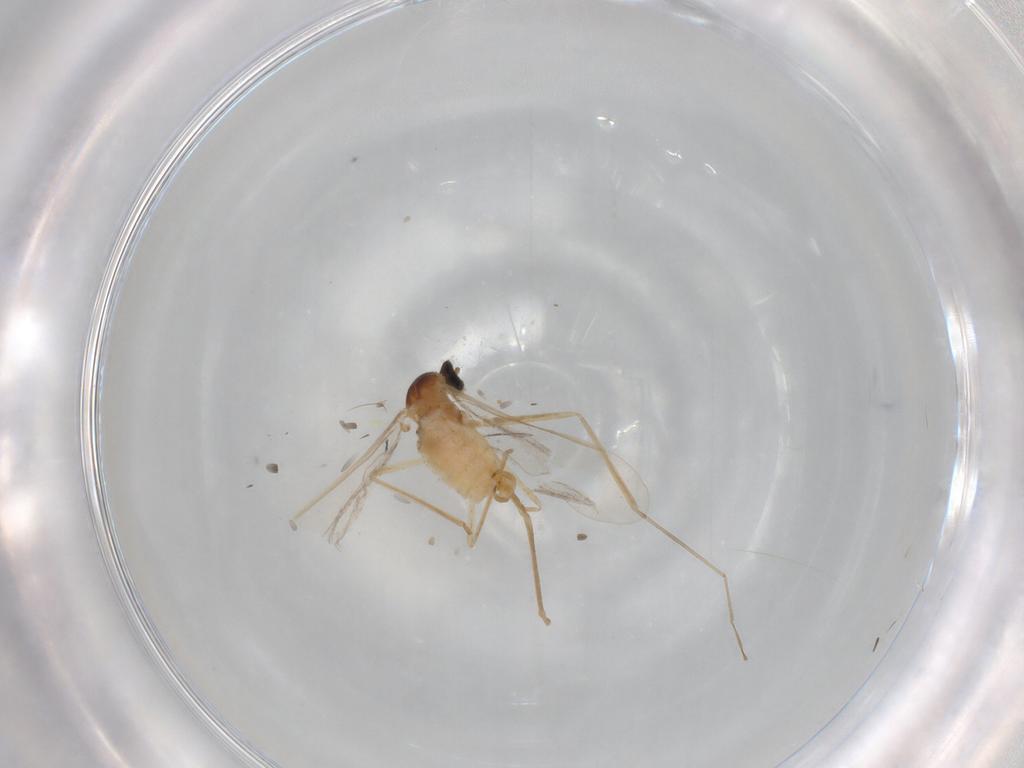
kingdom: Animalia
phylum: Arthropoda
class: Insecta
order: Diptera
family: Cecidomyiidae
